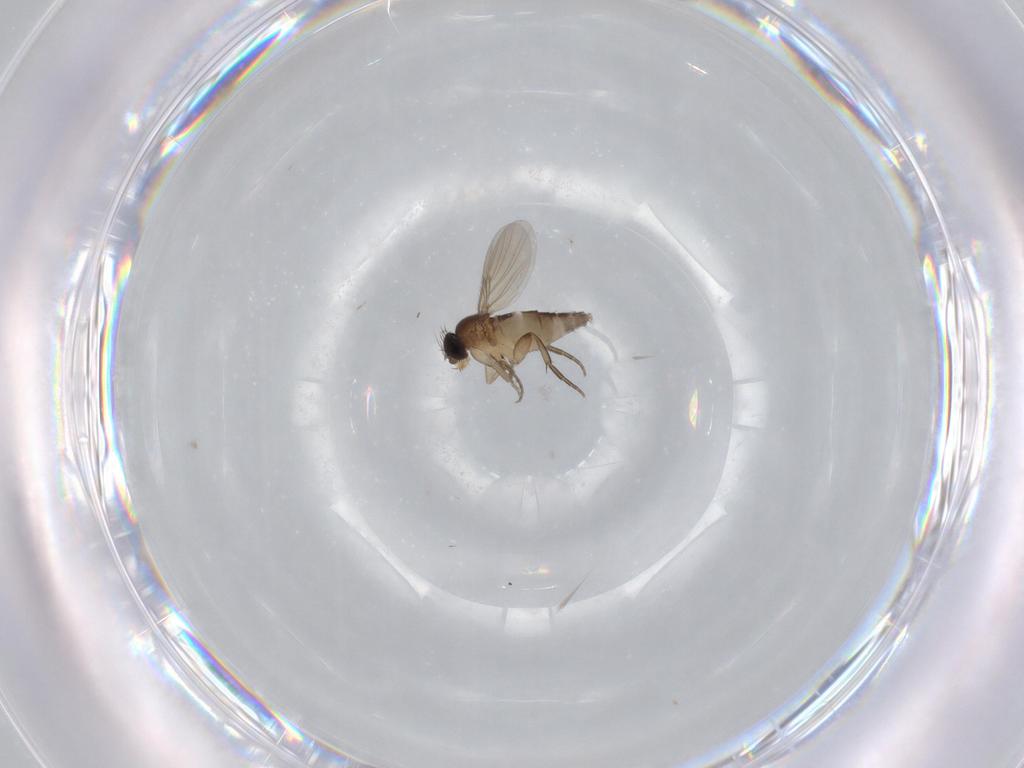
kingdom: Animalia
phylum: Arthropoda
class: Insecta
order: Diptera
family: Phoridae
